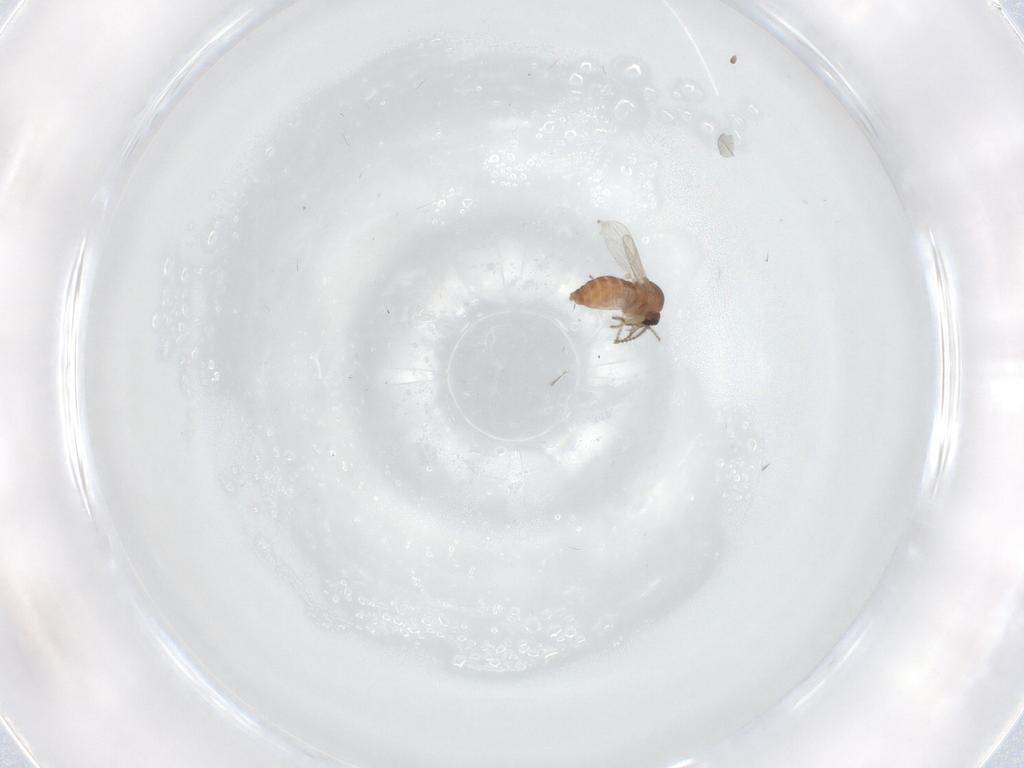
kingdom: Animalia
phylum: Arthropoda
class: Insecta
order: Diptera
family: Ceratopogonidae
